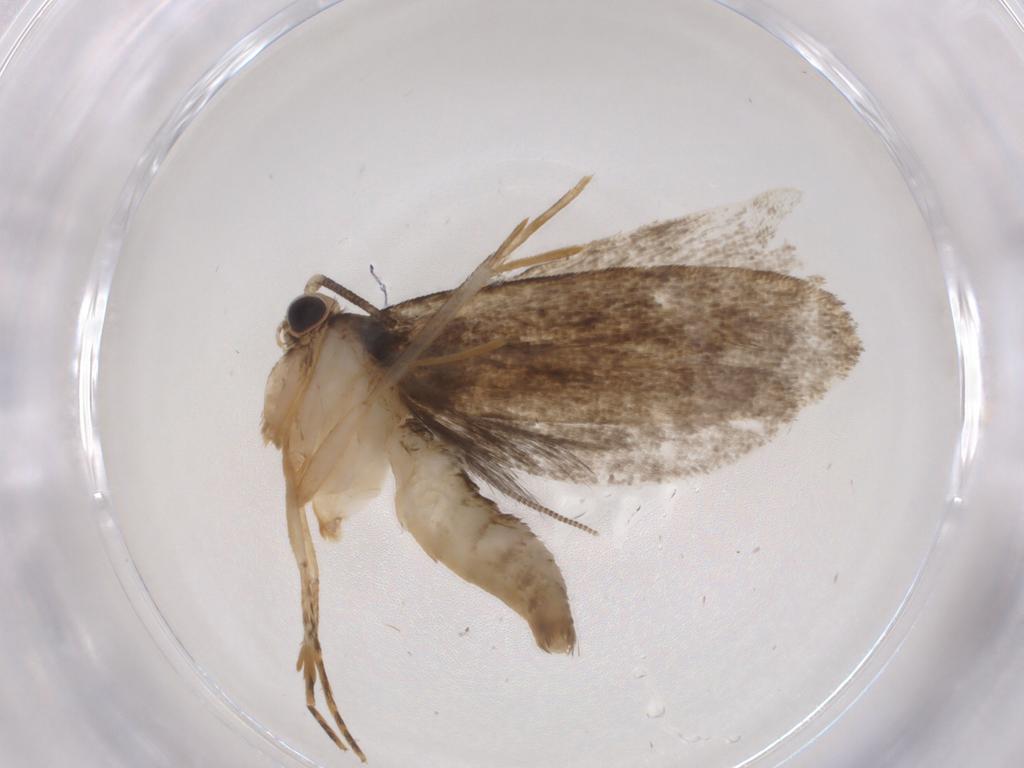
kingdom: Animalia
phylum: Arthropoda
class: Insecta
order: Lepidoptera
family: Tineidae
